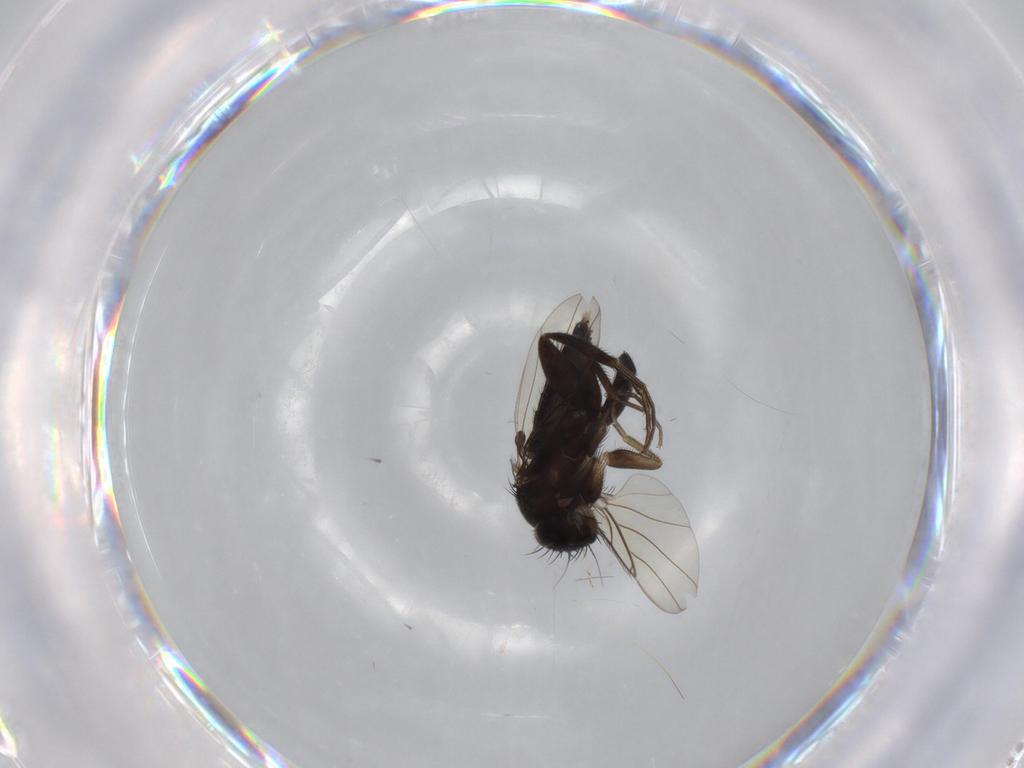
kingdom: Animalia
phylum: Arthropoda
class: Insecta
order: Diptera
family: Phoridae
